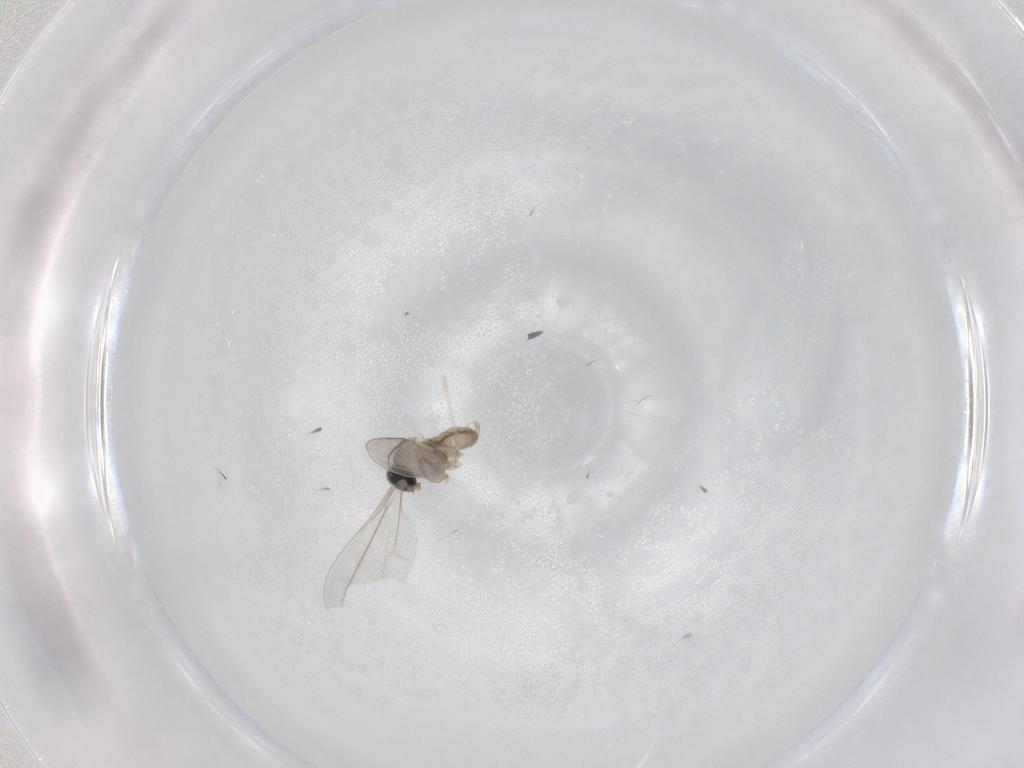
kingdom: Animalia
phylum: Arthropoda
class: Insecta
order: Diptera
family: Cecidomyiidae
